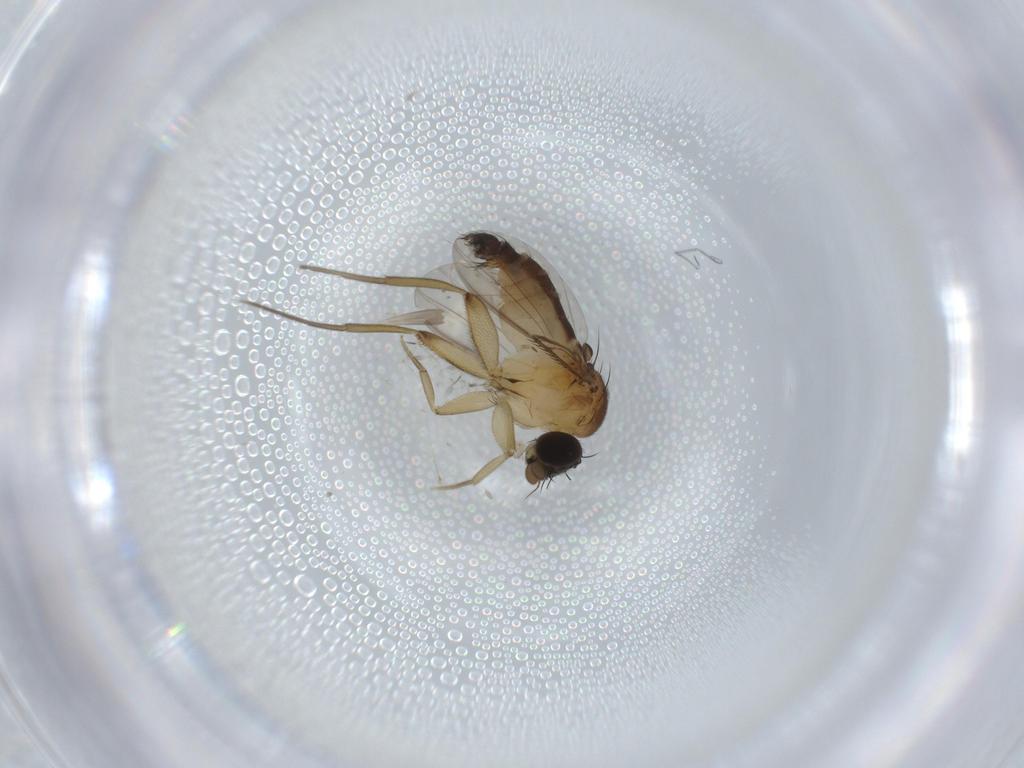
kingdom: Animalia
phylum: Arthropoda
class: Insecta
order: Diptera
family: Phoridae
